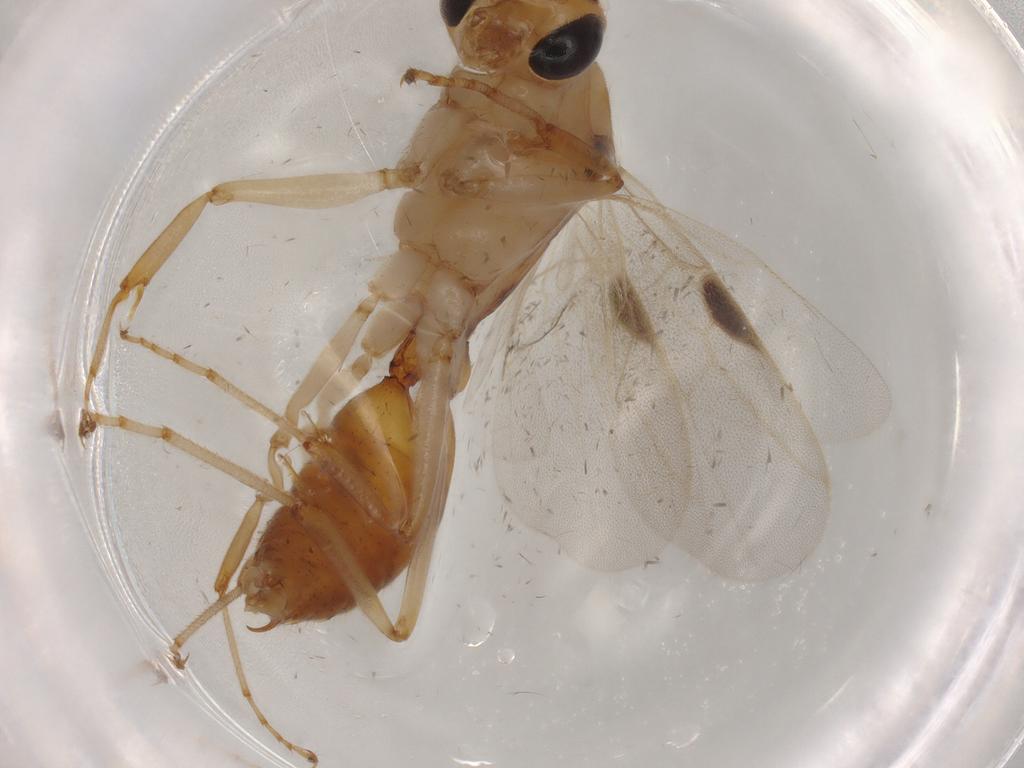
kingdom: Animalia
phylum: Arthropoda
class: Insecta
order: Hymenoptera
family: Formicidae
